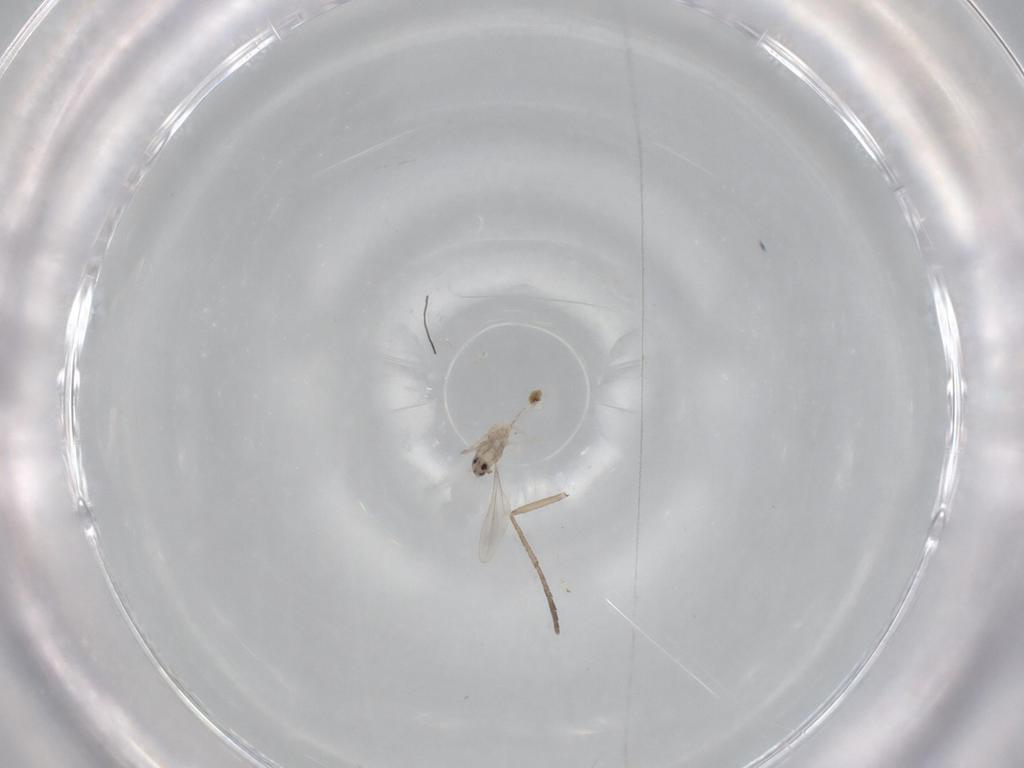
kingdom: Animalia
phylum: Arthropoda
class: Insecta
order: Diptera
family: Cecidomyiidae
